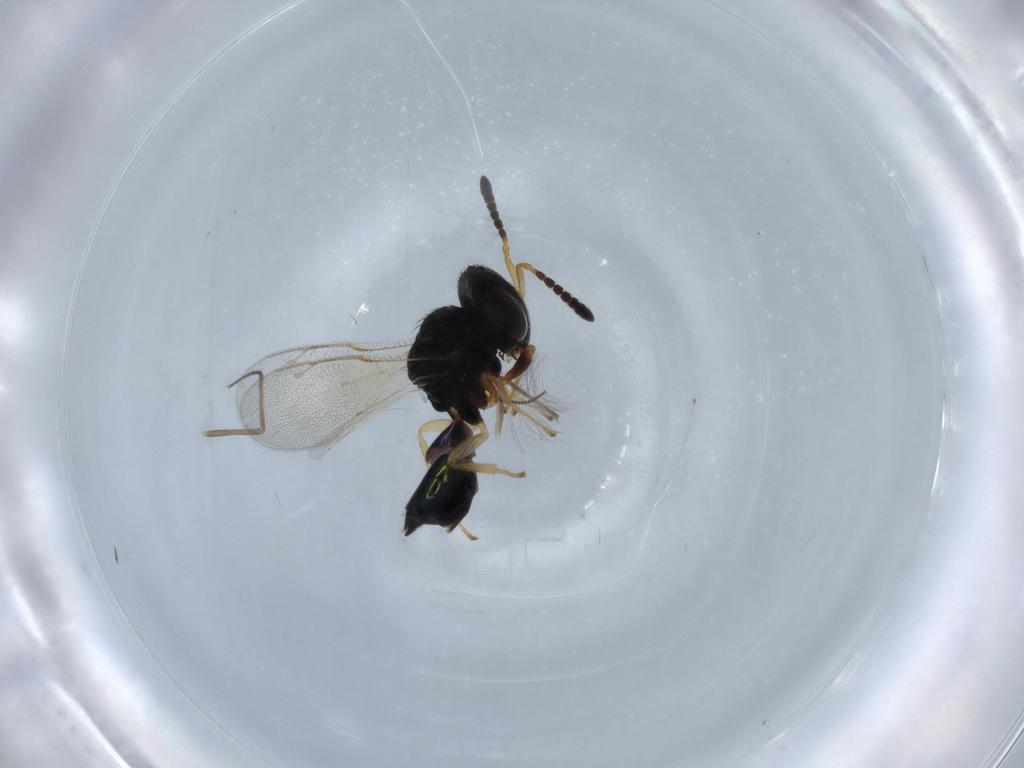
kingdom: Animalia
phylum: Arthropoda
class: Insecta
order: Hymenoptera
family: Pteromalidae
